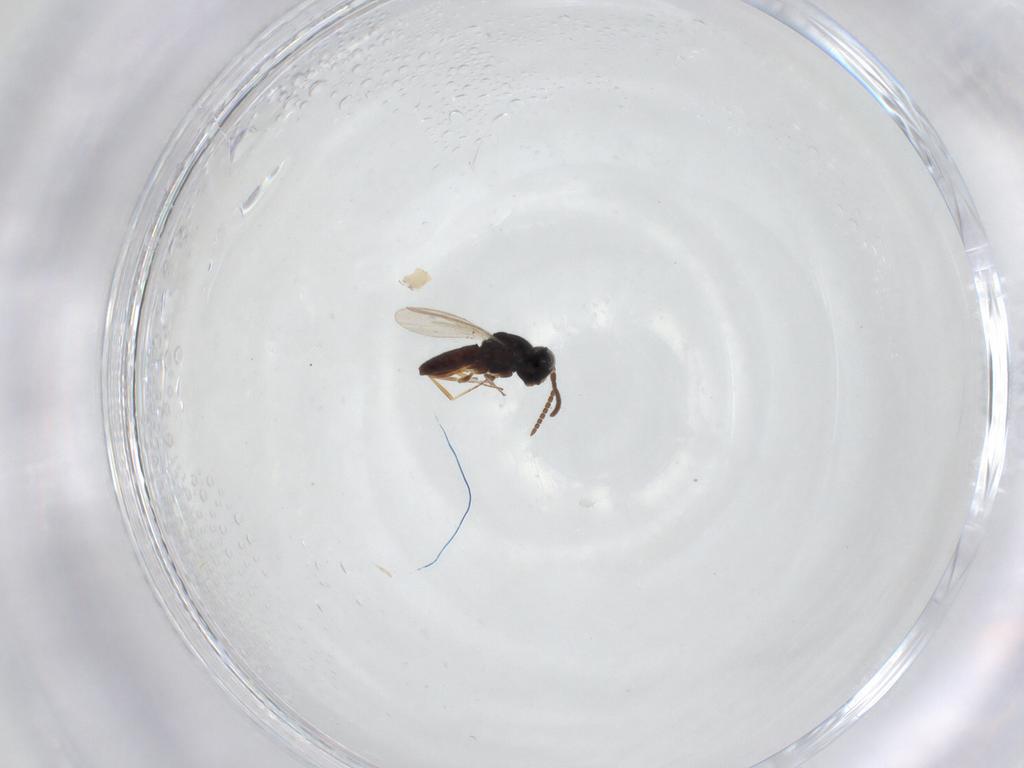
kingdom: Animalia
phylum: Arthropoda
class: Insecta
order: Hymenoptera
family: Scelionidae
